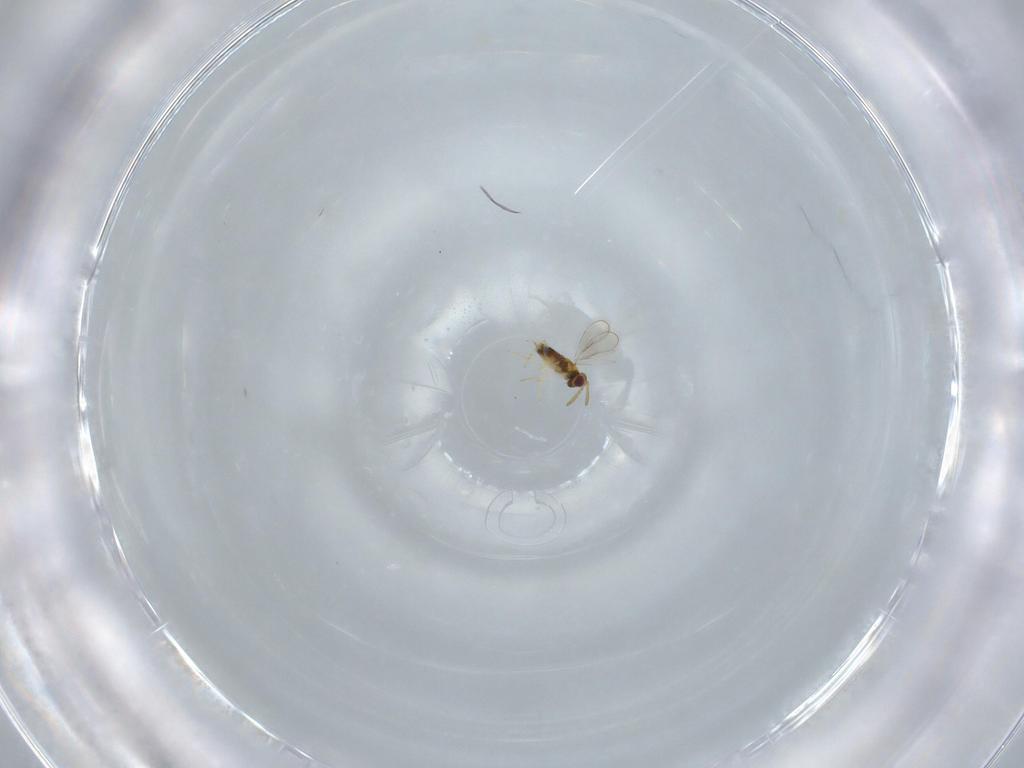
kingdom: Animalia
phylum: Arthropoda
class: Insecta
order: Hymenoptera
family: Aphelinidae
